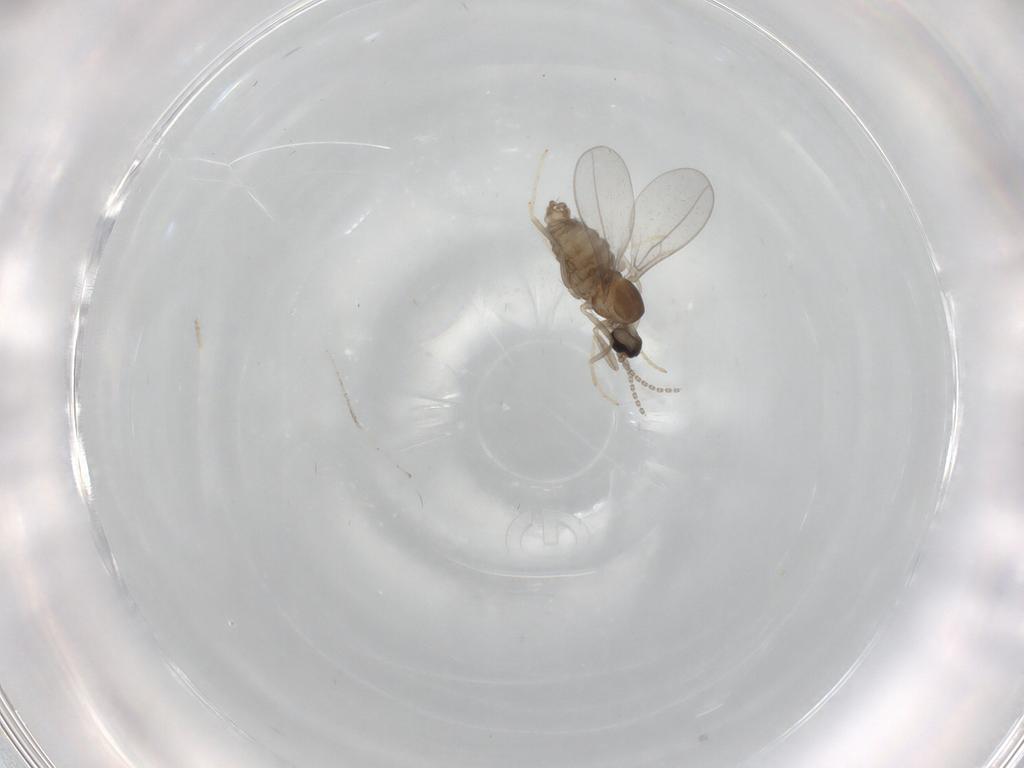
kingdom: Animalia
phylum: Arthropoda
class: Insecta
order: Diptera
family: Cecidomyiidae
